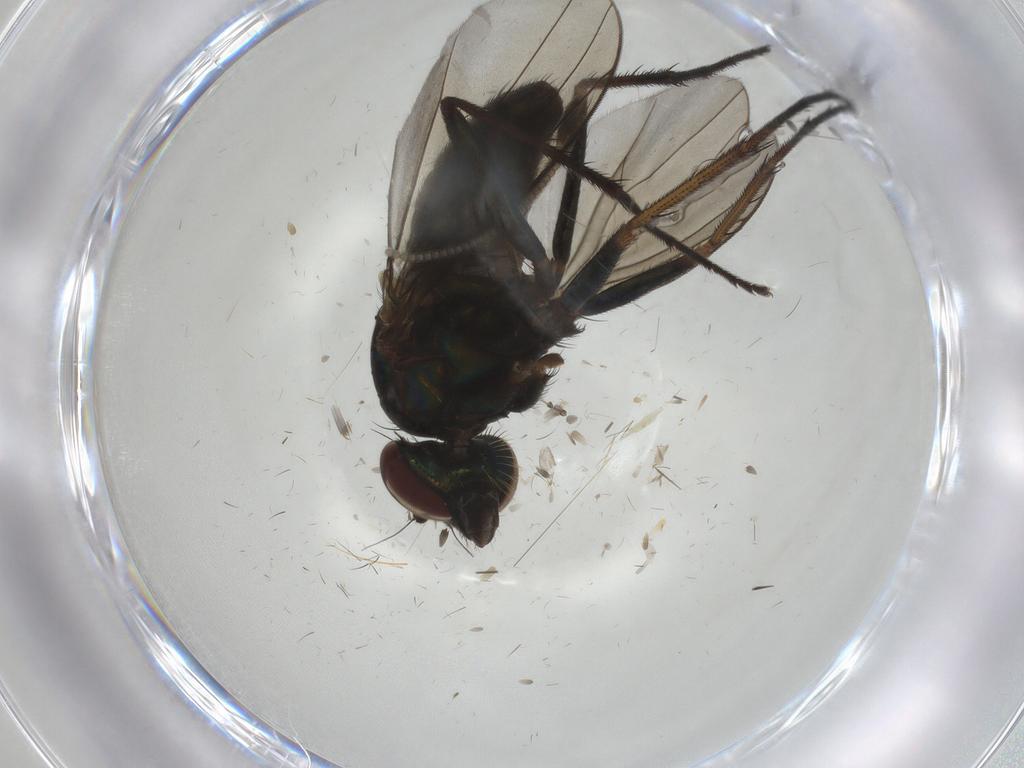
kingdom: Animalia
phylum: Arthropoda
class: Insecta
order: Diptera
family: Dolichopodidae
